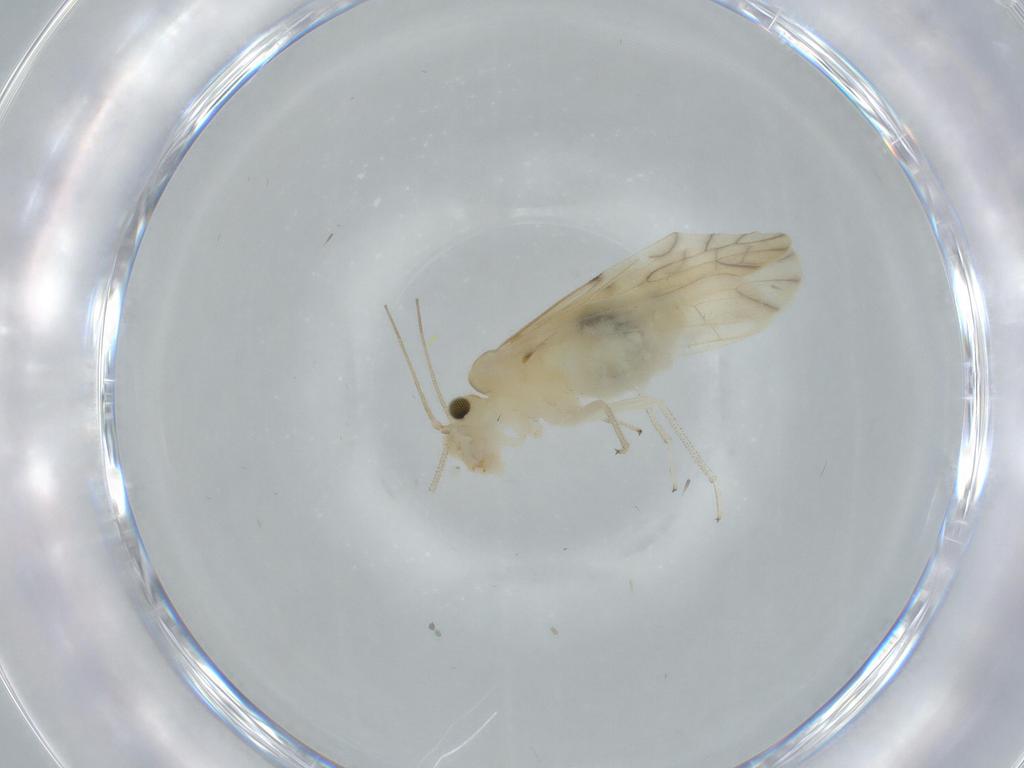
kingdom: Animalia
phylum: Arthropoda
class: Insecta
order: Psocodea
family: Caeciliusidae
